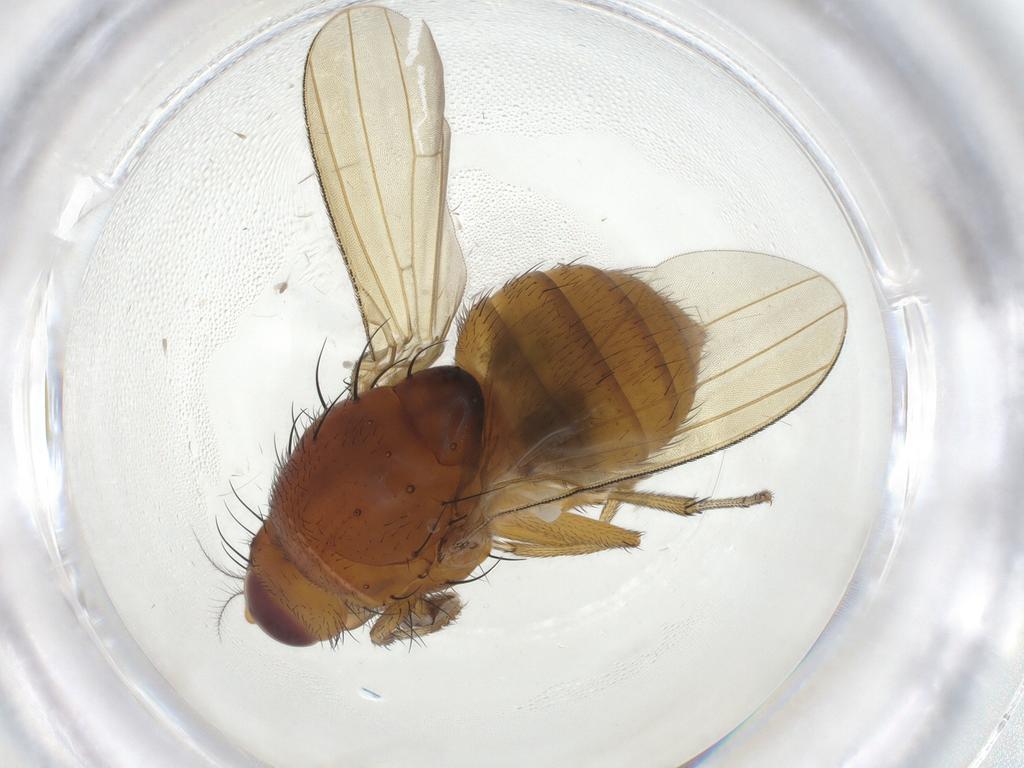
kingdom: Animalia
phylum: Arthropoda
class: Insecta
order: Diptera
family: Lauxaniidae
